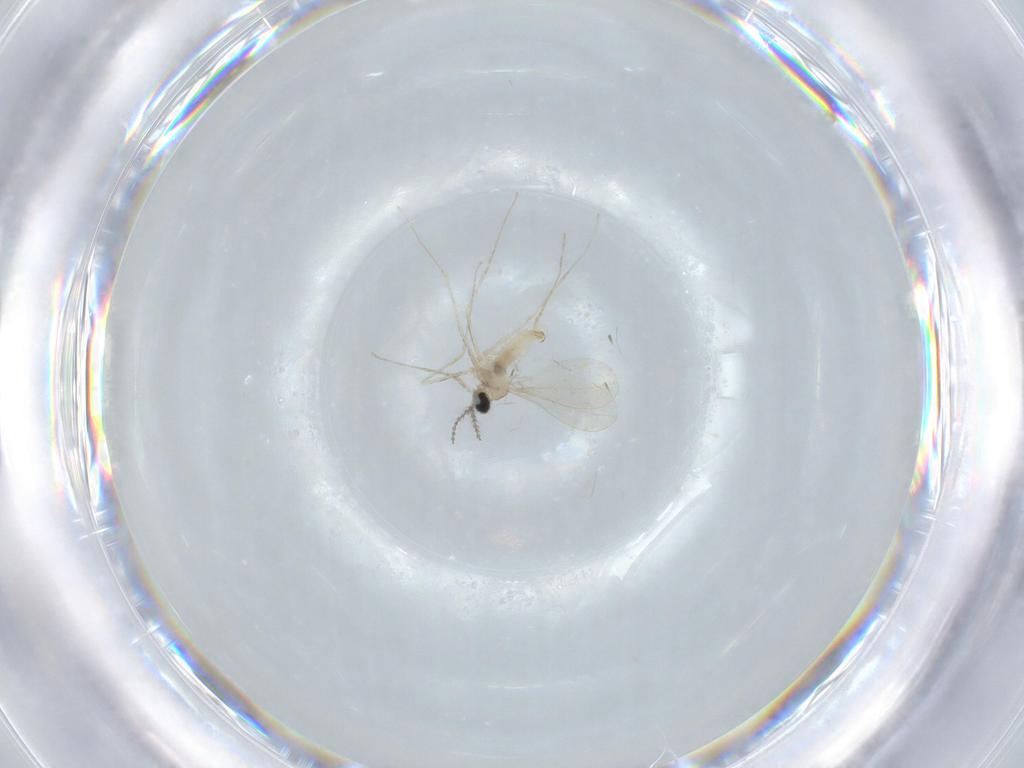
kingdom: Animalia
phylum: Arthropoda
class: Insecta
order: Diptera
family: Cecidomyiidae
